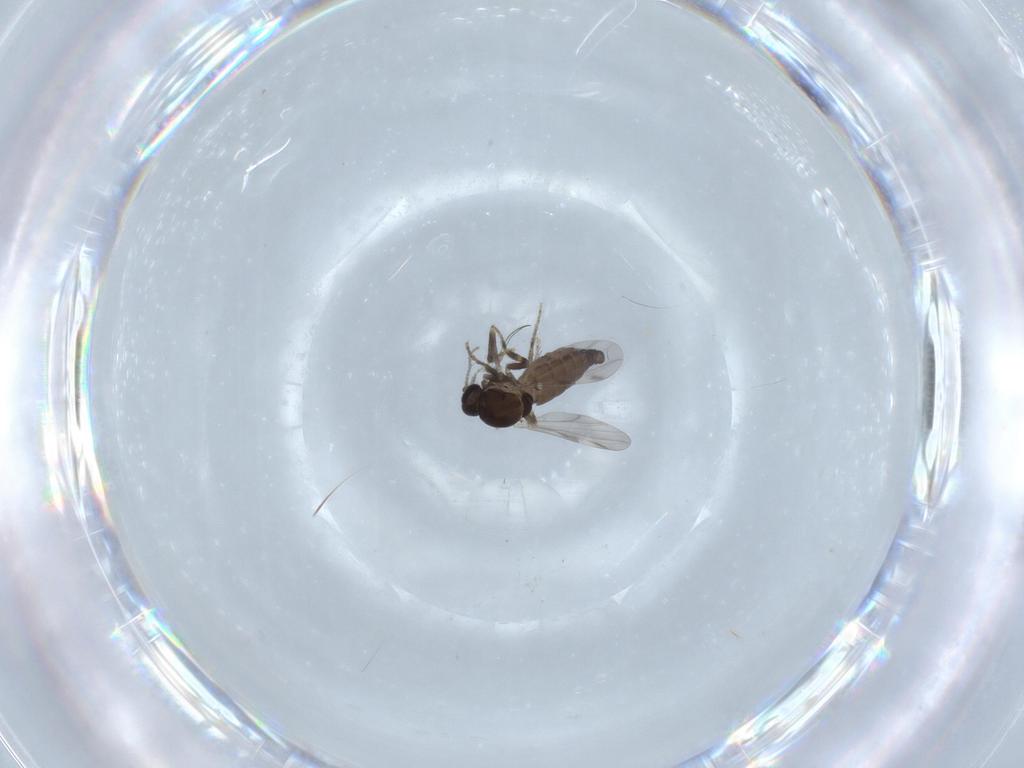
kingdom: Animalia
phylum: Arthropoda
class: Insecta
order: Diptera
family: Ceratopogonidae
